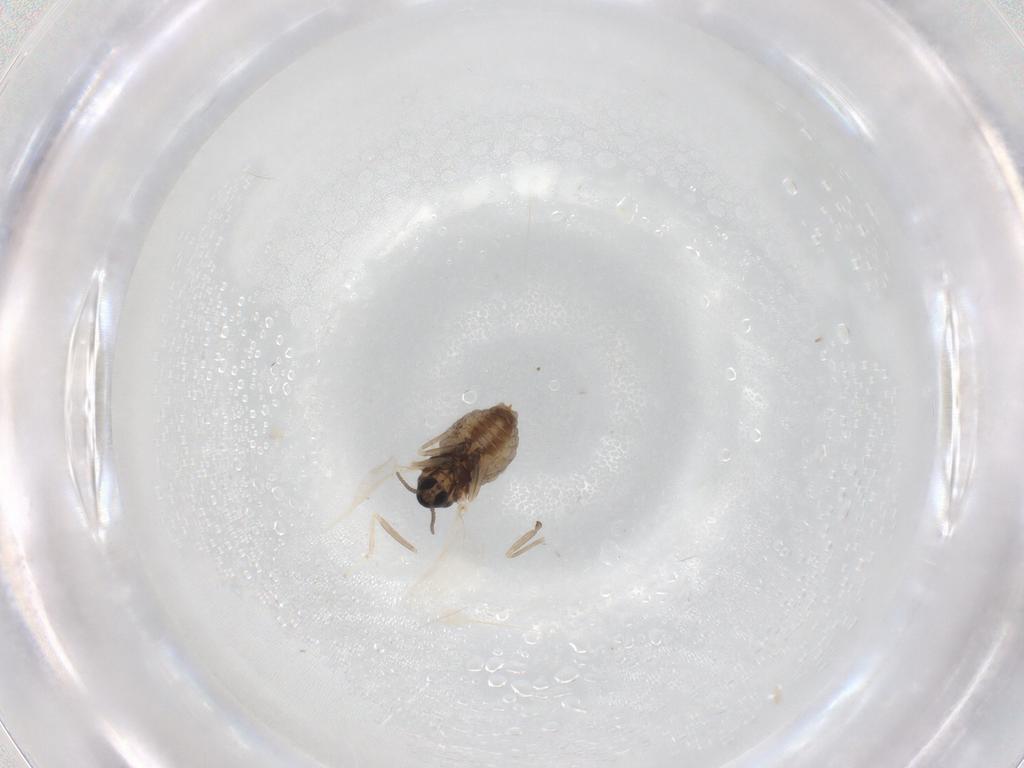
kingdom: Animalia
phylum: Arthropoda
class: Insecta
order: Diptera
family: Cecidomyiidae
